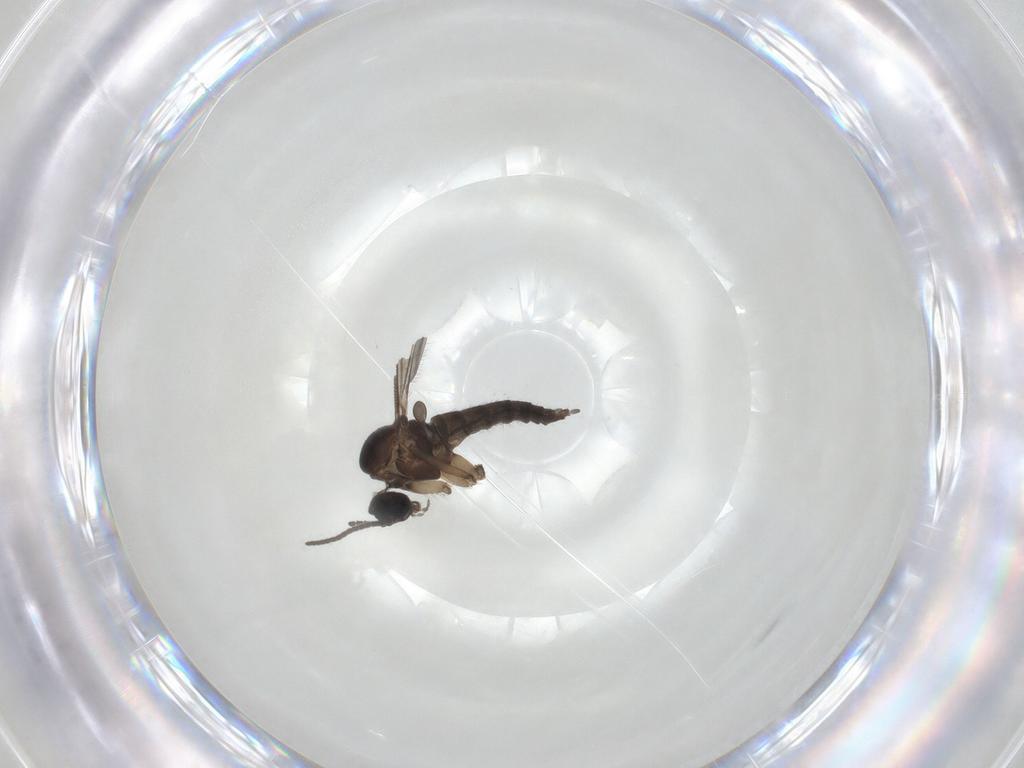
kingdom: Animalia
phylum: Arthropoda
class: Insecta
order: Diptera
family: Sciaridae
